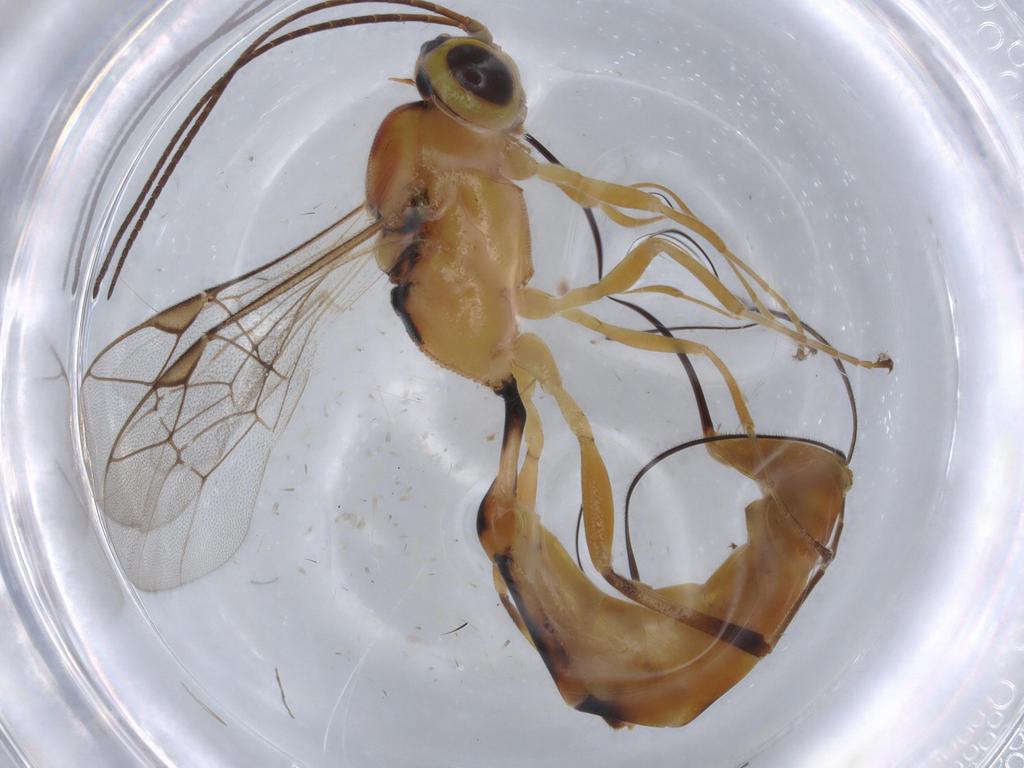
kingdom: Animalia
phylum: Arthropoda
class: Insecta
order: Hymenoptera
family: Ichneumonidae
